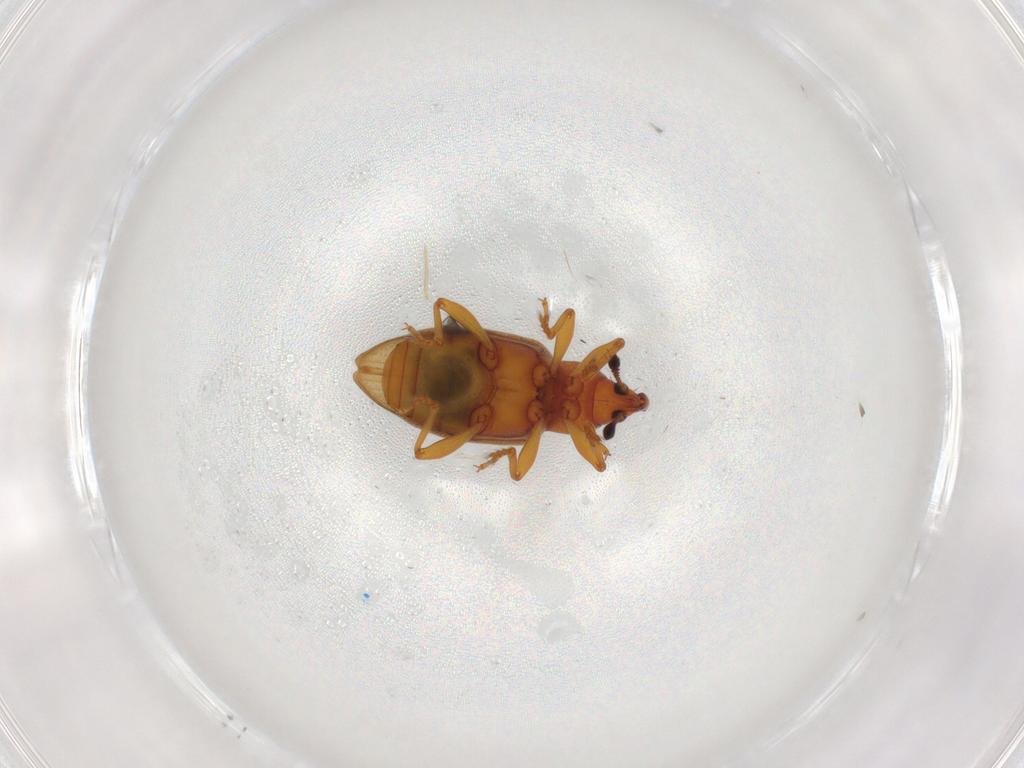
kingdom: Animalia
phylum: Arthropoda
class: Insecta
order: Coleoptera
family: Curculionidae
